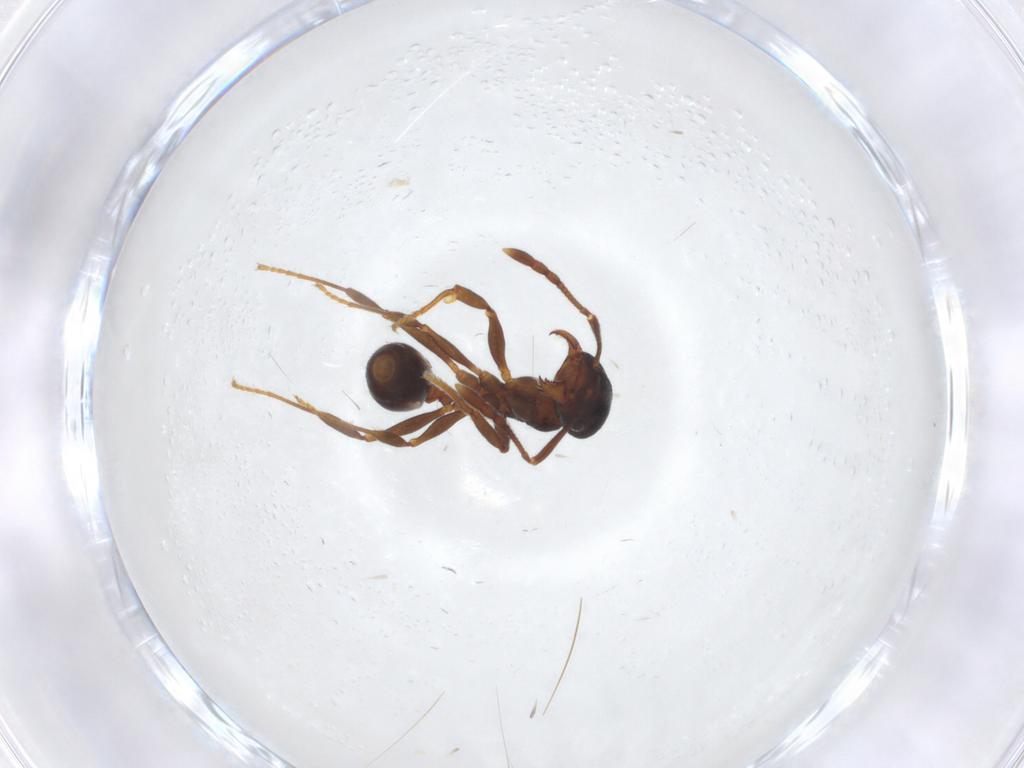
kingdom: Animalia
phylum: Arthropoda
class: Insecta
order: Hymenoptera
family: Formicidae
